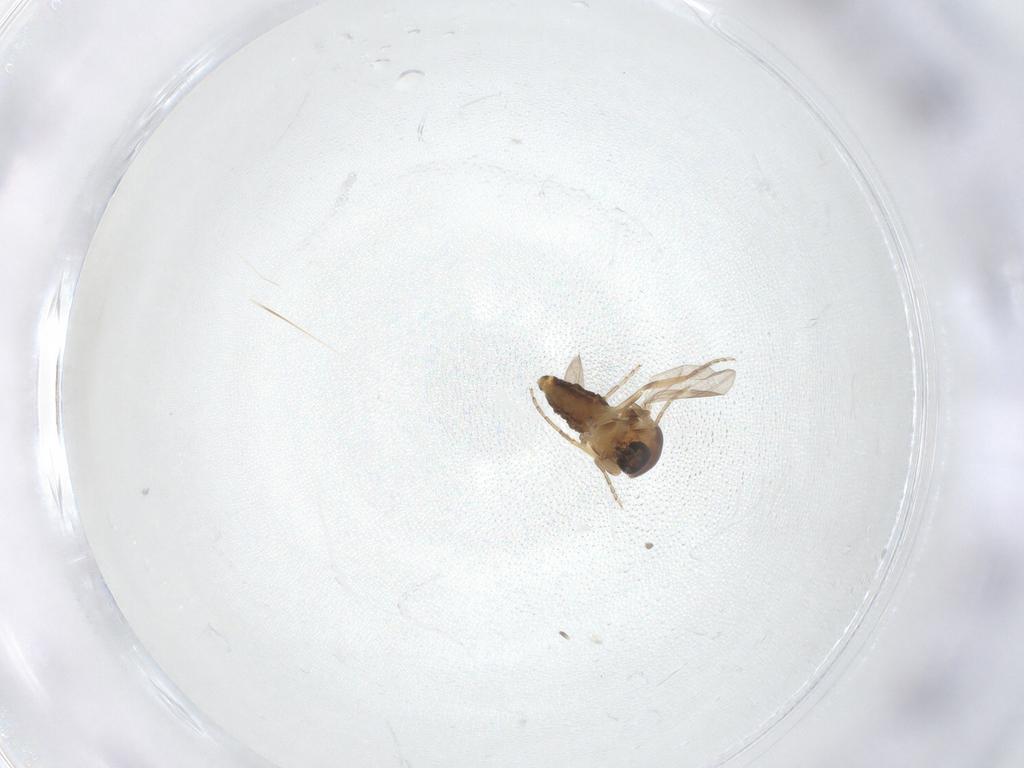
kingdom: Animalia
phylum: Arthropoda
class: Insecta
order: Diptera
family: Ceratopogonidae
